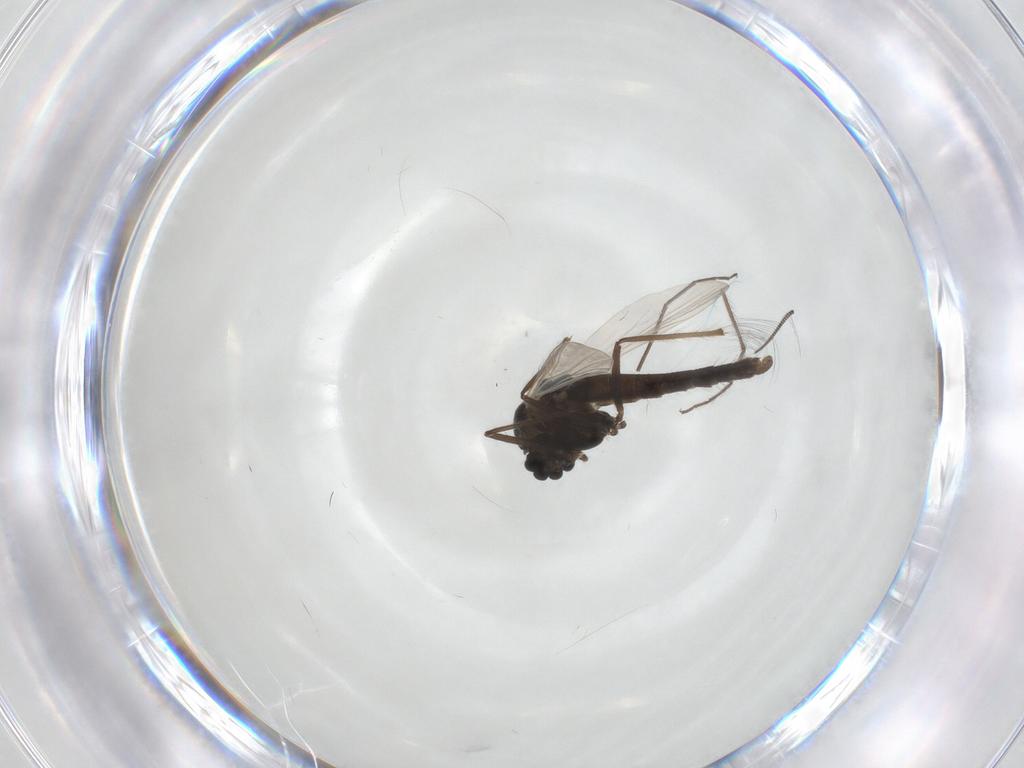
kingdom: Animalia
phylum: Arthropoda
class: Insecta
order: Diptera
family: Chironomidae
